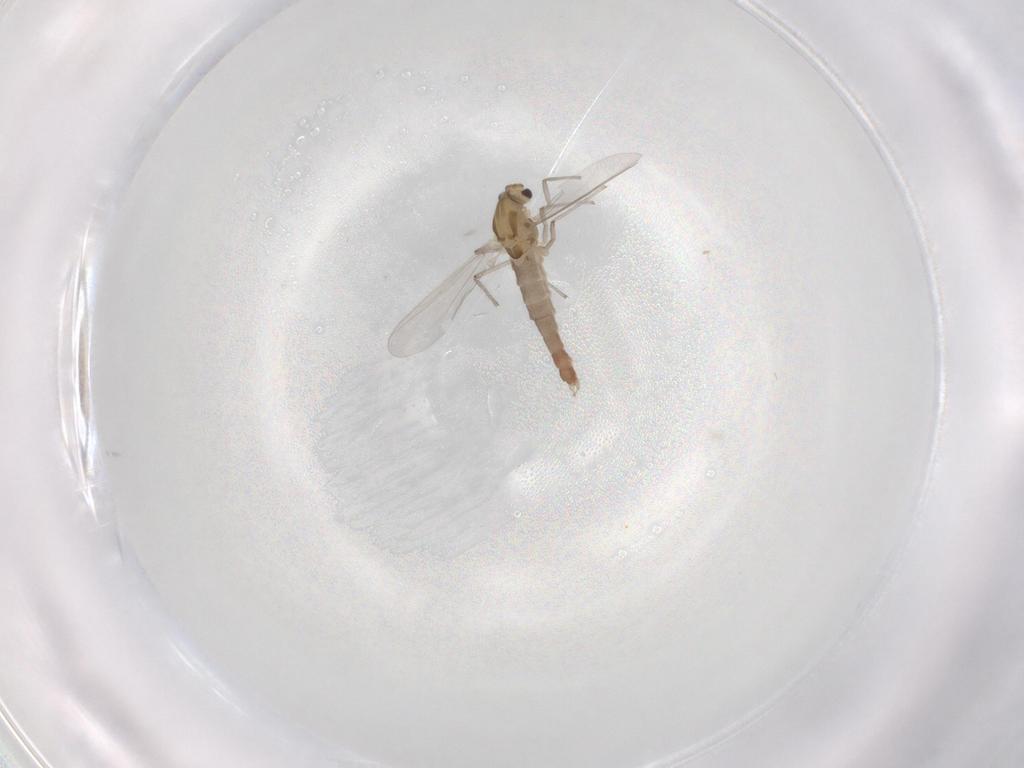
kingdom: Animalia
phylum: Arthropoda
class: Insecta
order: Diptera
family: Chironomidae
